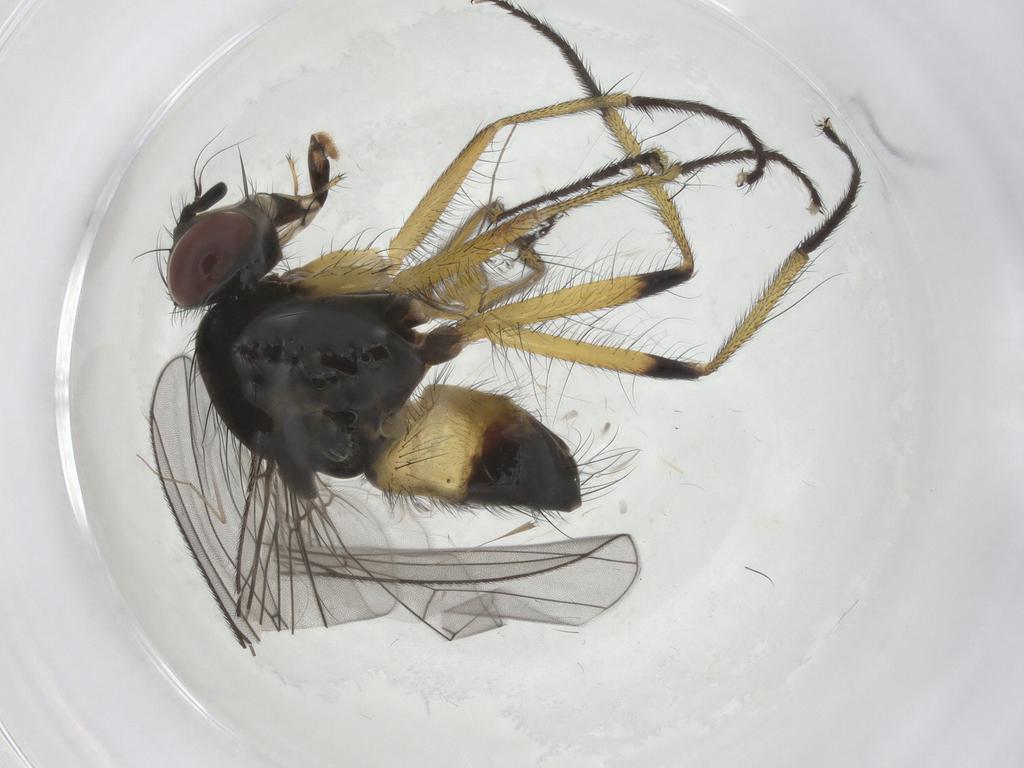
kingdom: Animalia
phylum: Arthropoda
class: Insecta
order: Diptera
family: Muscidae
